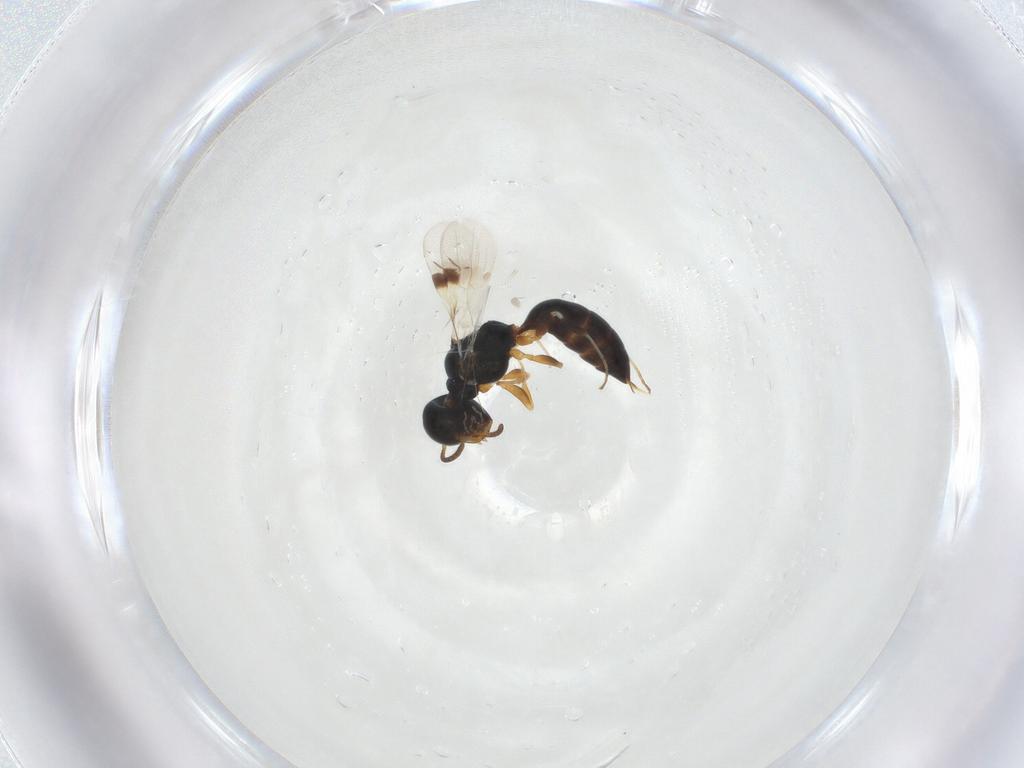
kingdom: Animalia
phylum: Arthropoda
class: Insecta
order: Hymenoptera
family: Pemphredonidae
